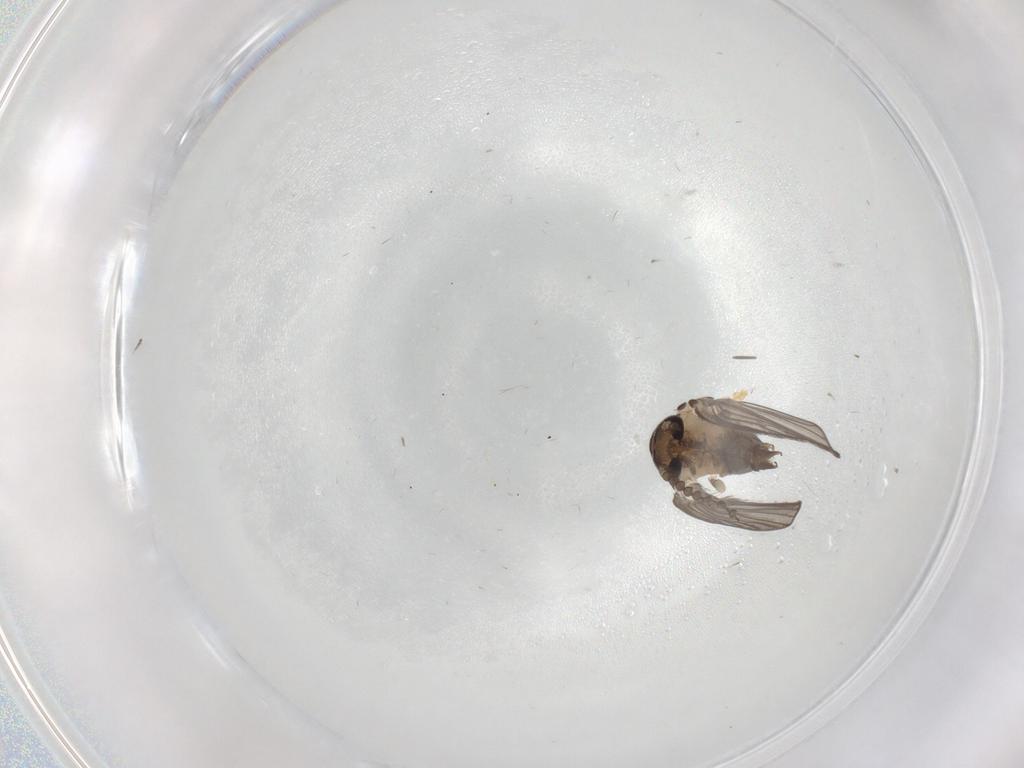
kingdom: Animalia
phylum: Arthropoda
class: Insecta
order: Diptera
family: Psychodidae
